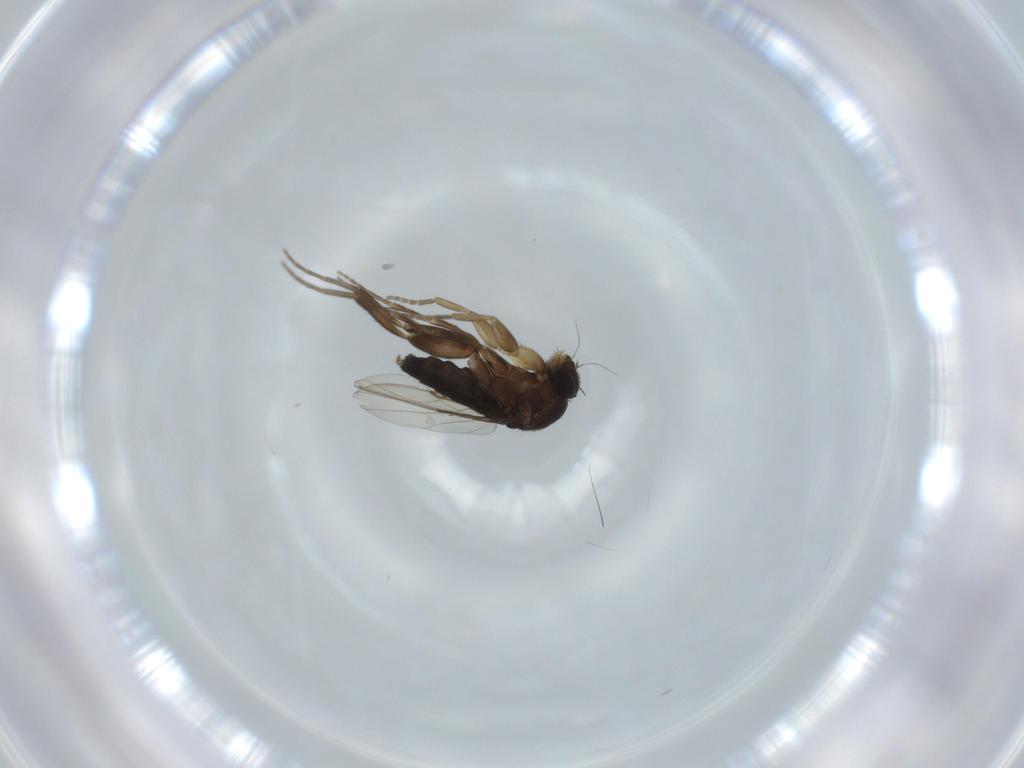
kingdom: Animalia
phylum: Arthropoda
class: Insecta
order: Diptera
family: Phoridae
